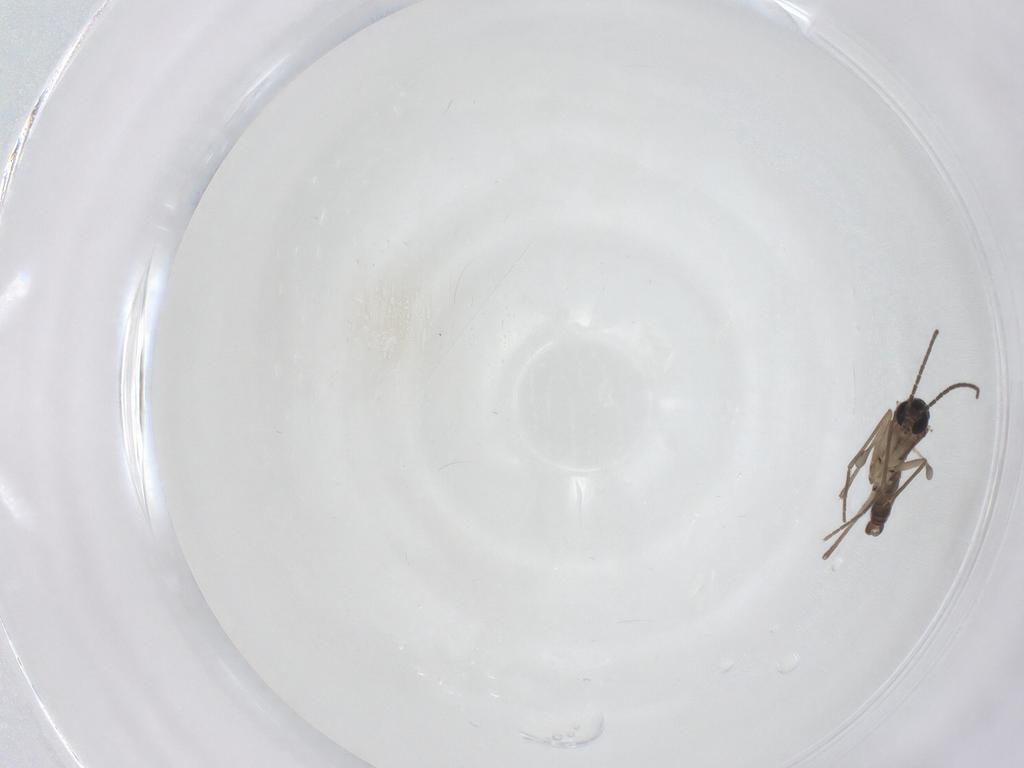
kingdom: Animalia
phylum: Arthropoda
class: Insecta
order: Diptera
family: Sciaridae
